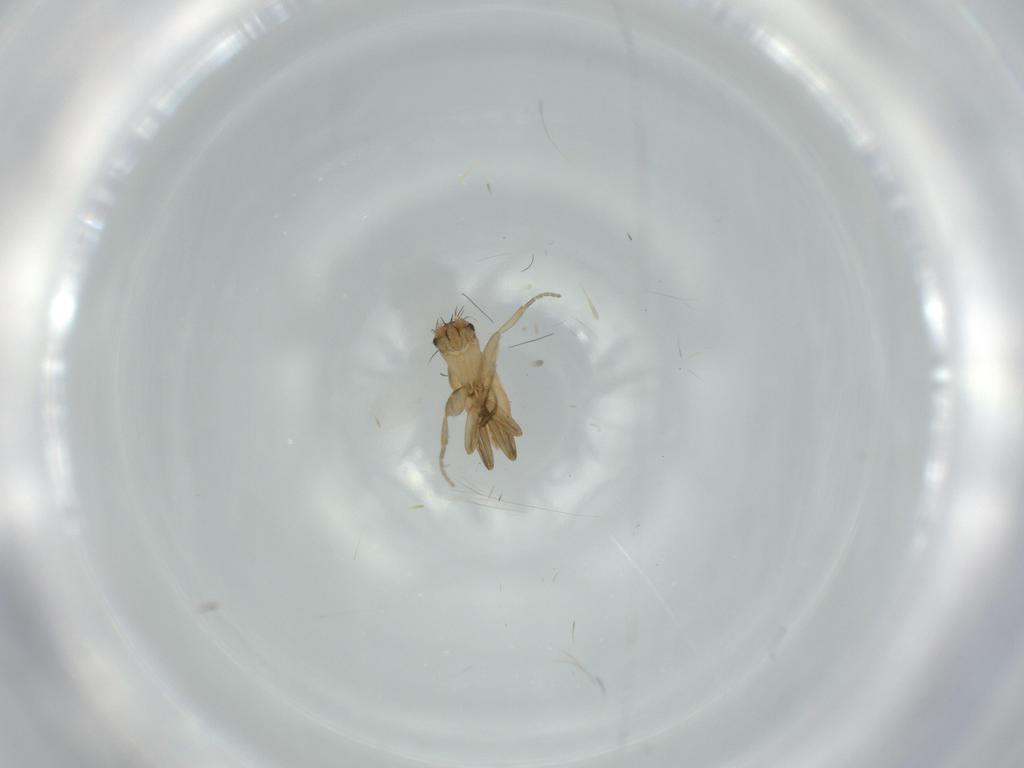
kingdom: Animalia
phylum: Arthropoda
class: Insecta
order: Diptera
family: Phoridae
